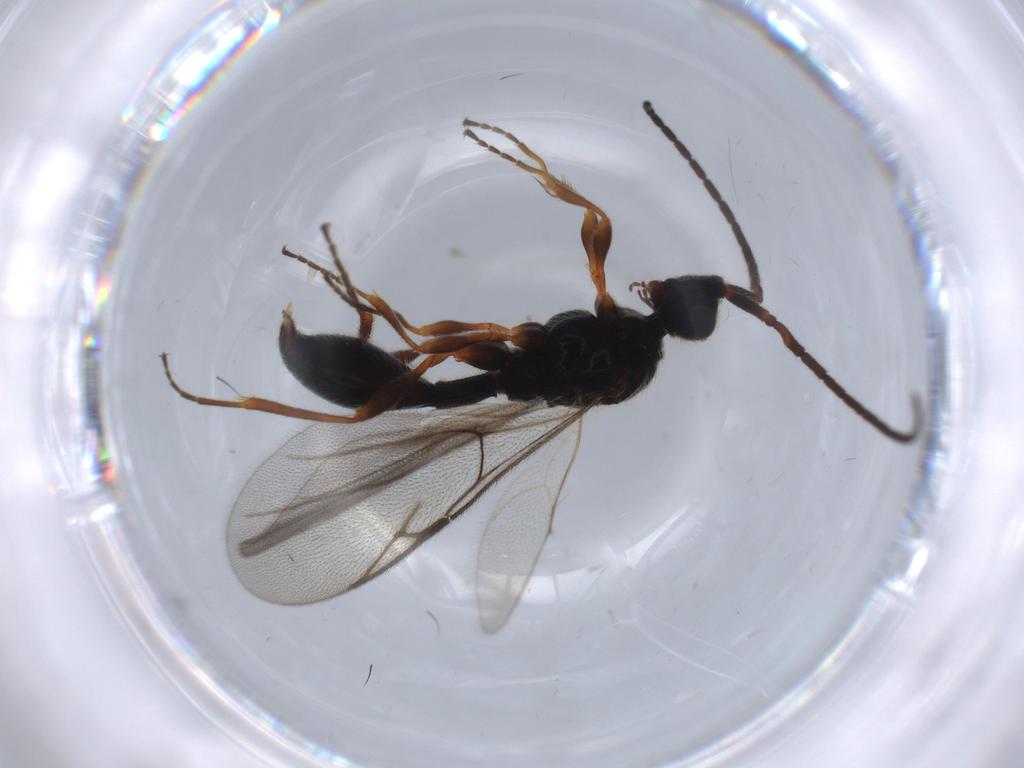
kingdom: Animalia
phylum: Arthropoda
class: Insecta
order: Hymenoptera
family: Diapriidae
